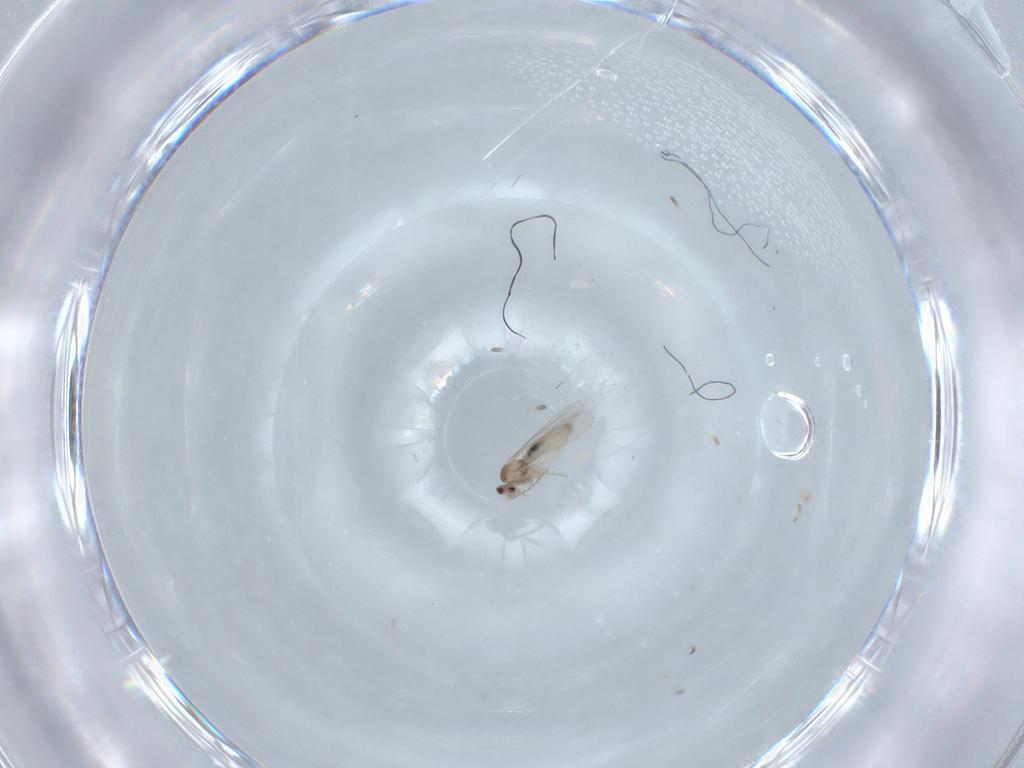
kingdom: Animalia
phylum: Arthropoda
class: Insecta
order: Diptera
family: Cecidomyiidae
